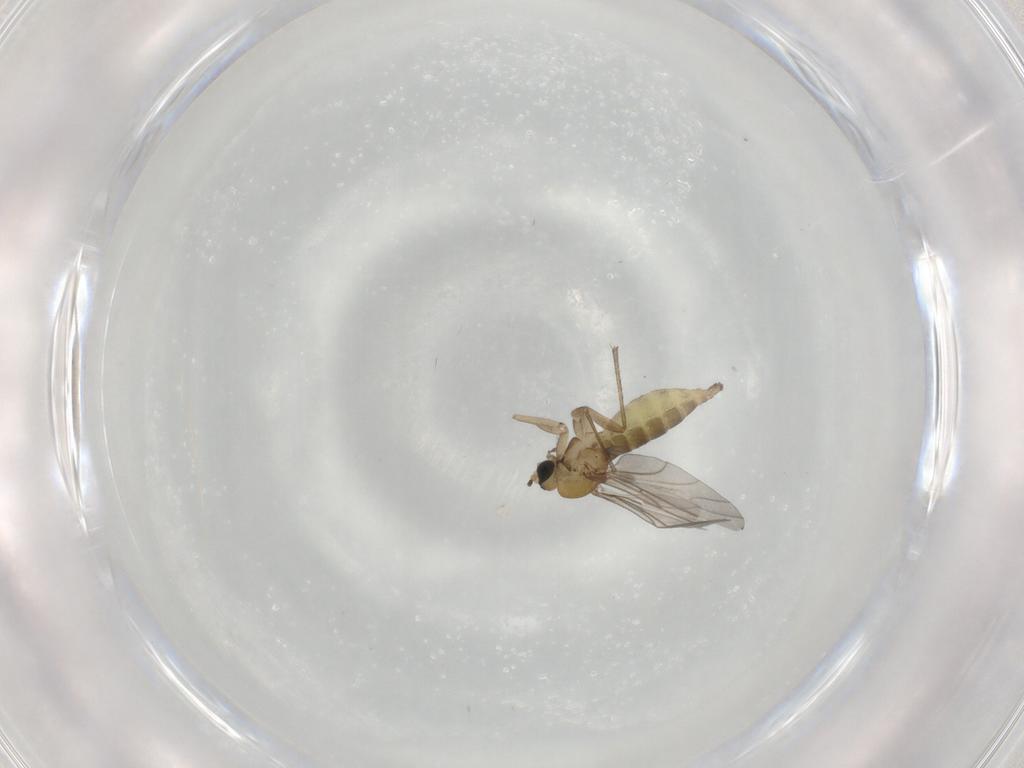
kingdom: Animalia
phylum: Arthropoda
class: Insecta
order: Diptera
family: Sciaridae
